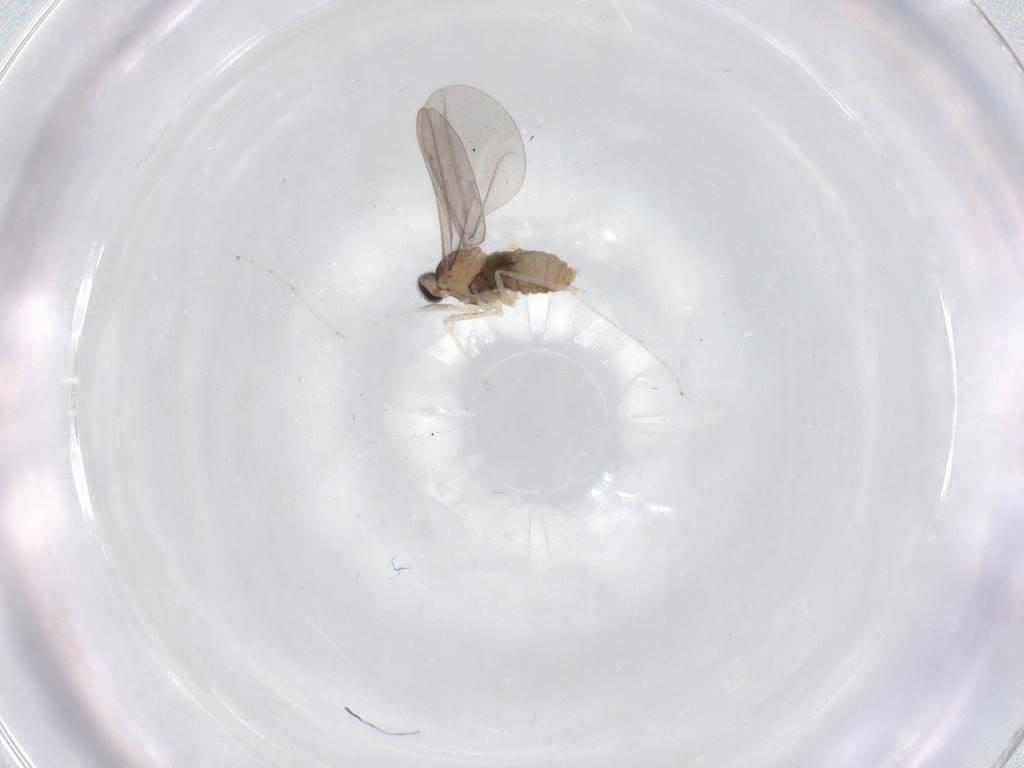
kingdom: Animalia
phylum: Arthropoda
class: Insecta
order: Diptera
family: Cecidomyiidae
